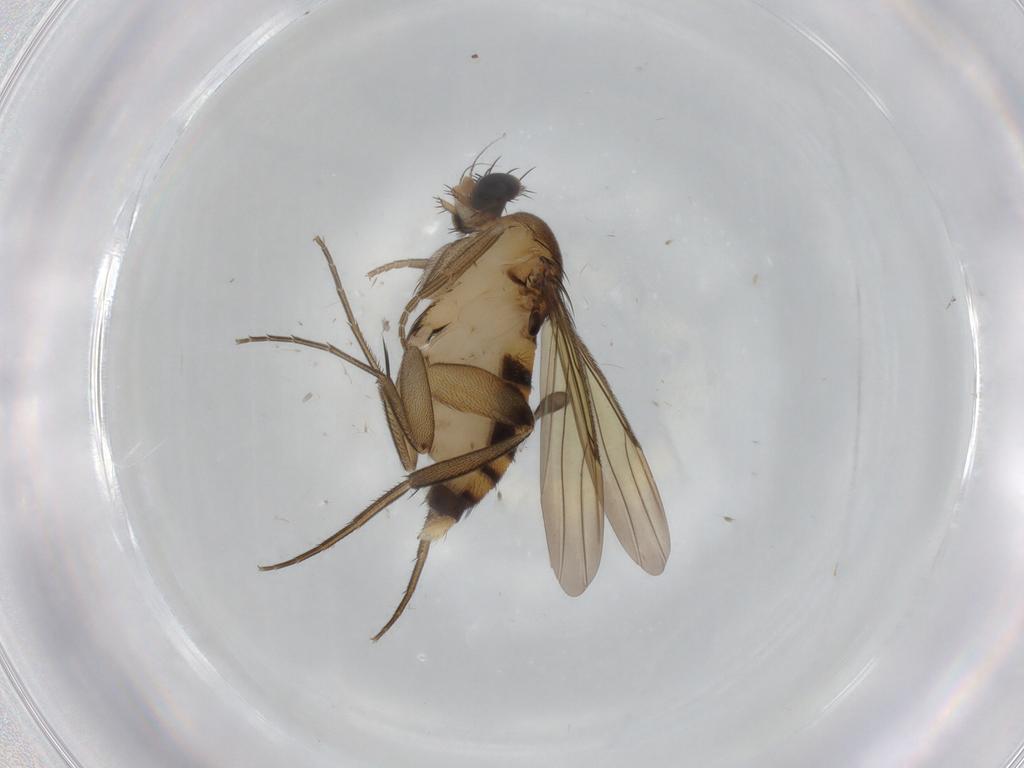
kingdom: Animalia
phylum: Arthropoda
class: Insecta
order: Diptera
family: Phoridae
